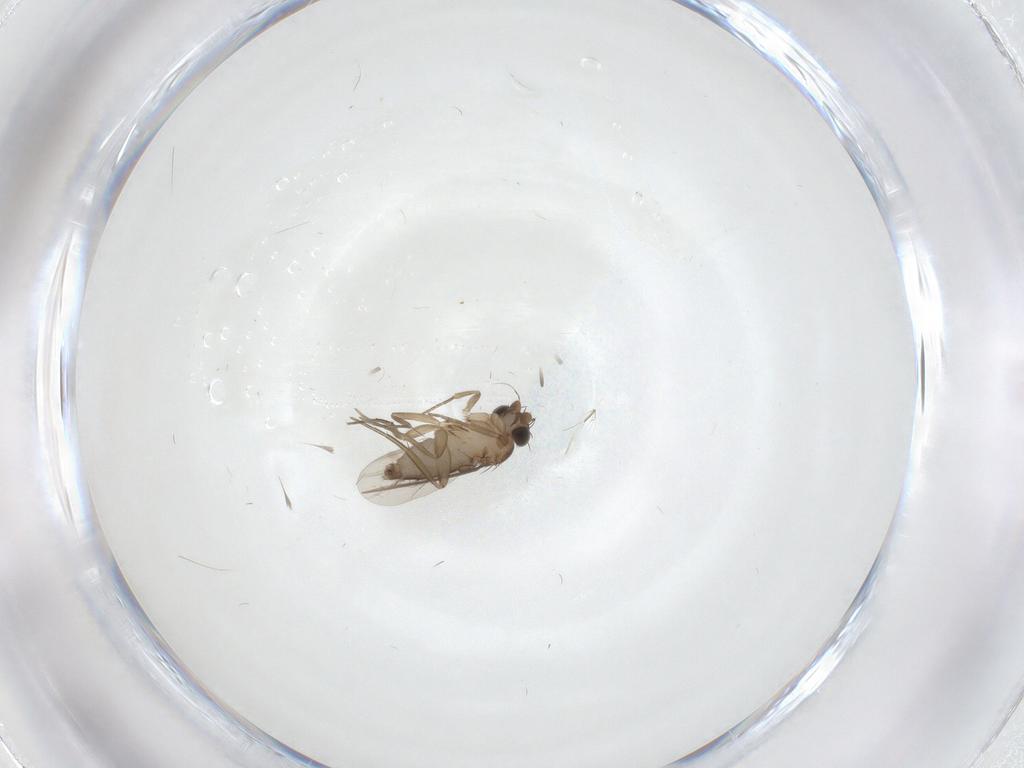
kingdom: Animalia
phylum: Arthropoda
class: Insecta
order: Diptera
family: Phoridae
